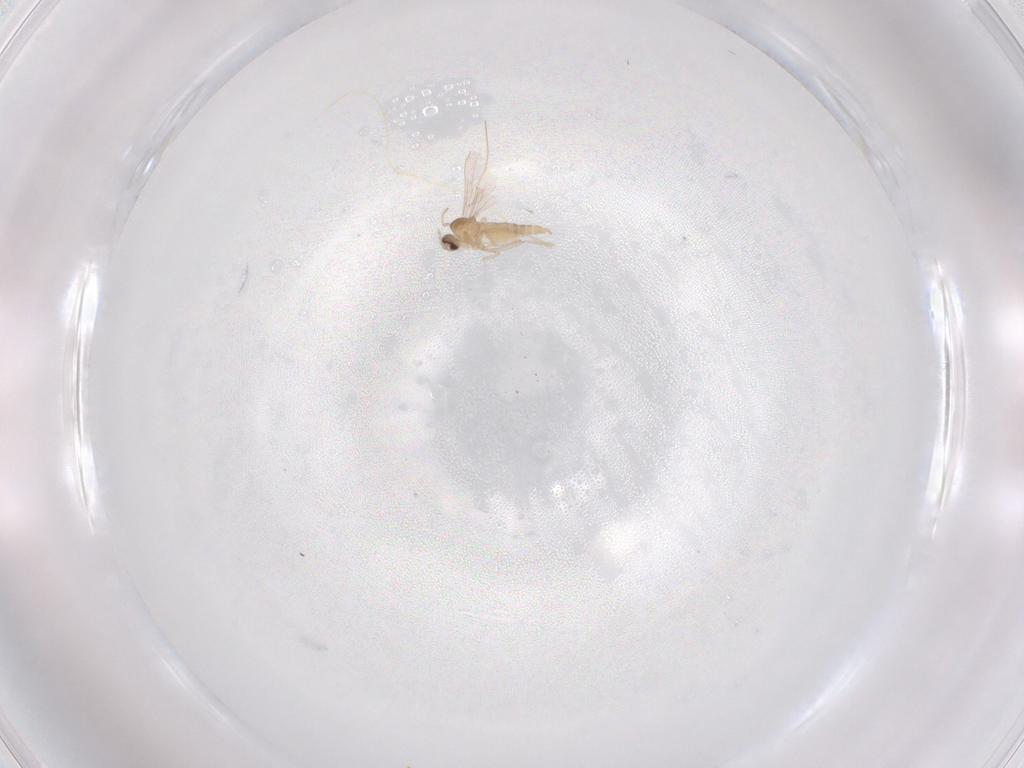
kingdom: Animalia
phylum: Arthropoda
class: Insecta
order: Diptera
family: Cecidomyiidae
